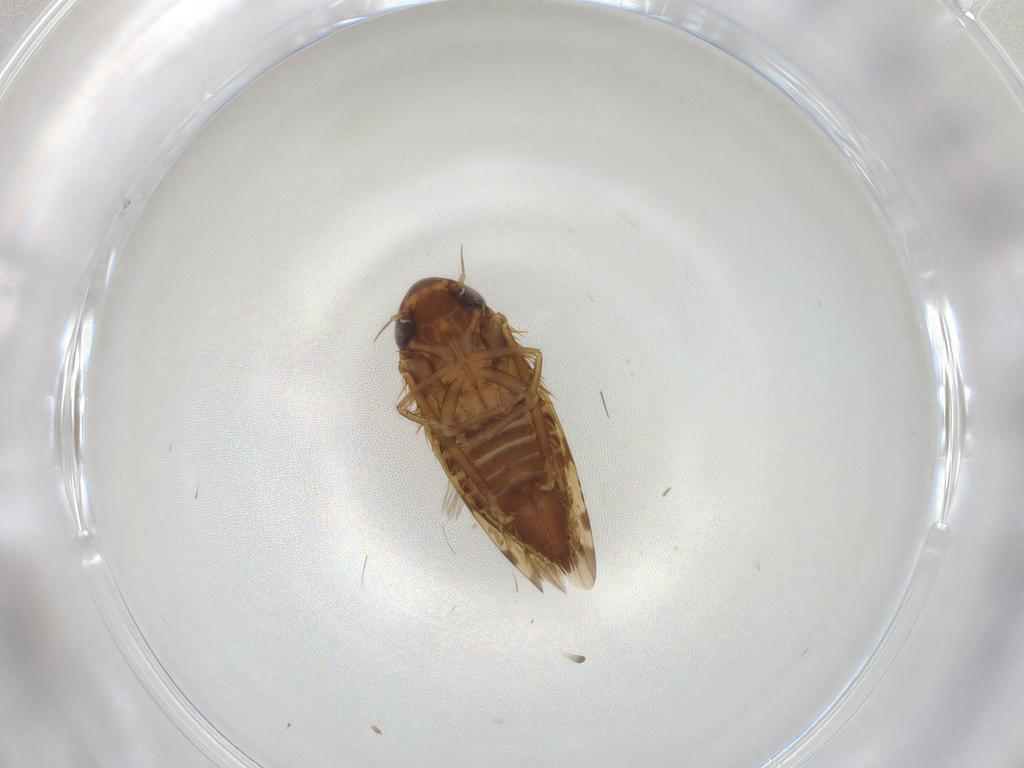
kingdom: Animalia
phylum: Arthropoda
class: Insecta
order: Hemiptera
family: Cicadellidae
